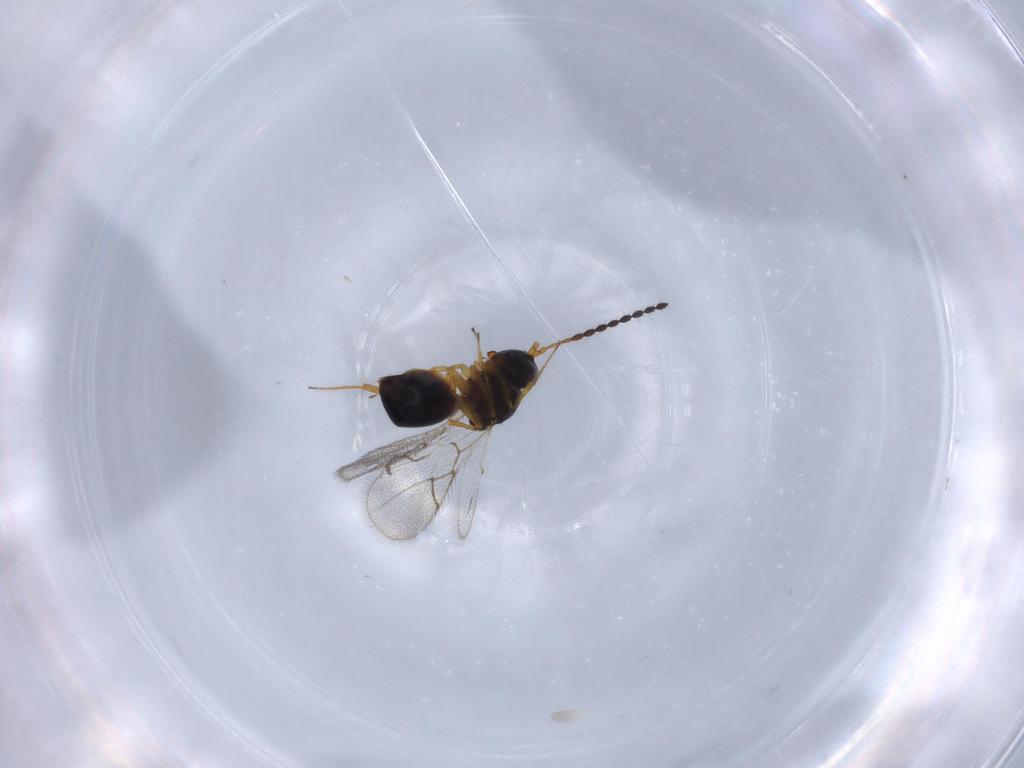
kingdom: Animalia
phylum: Arthropoda
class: Insecta
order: Hymenoptera
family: Figitidae
